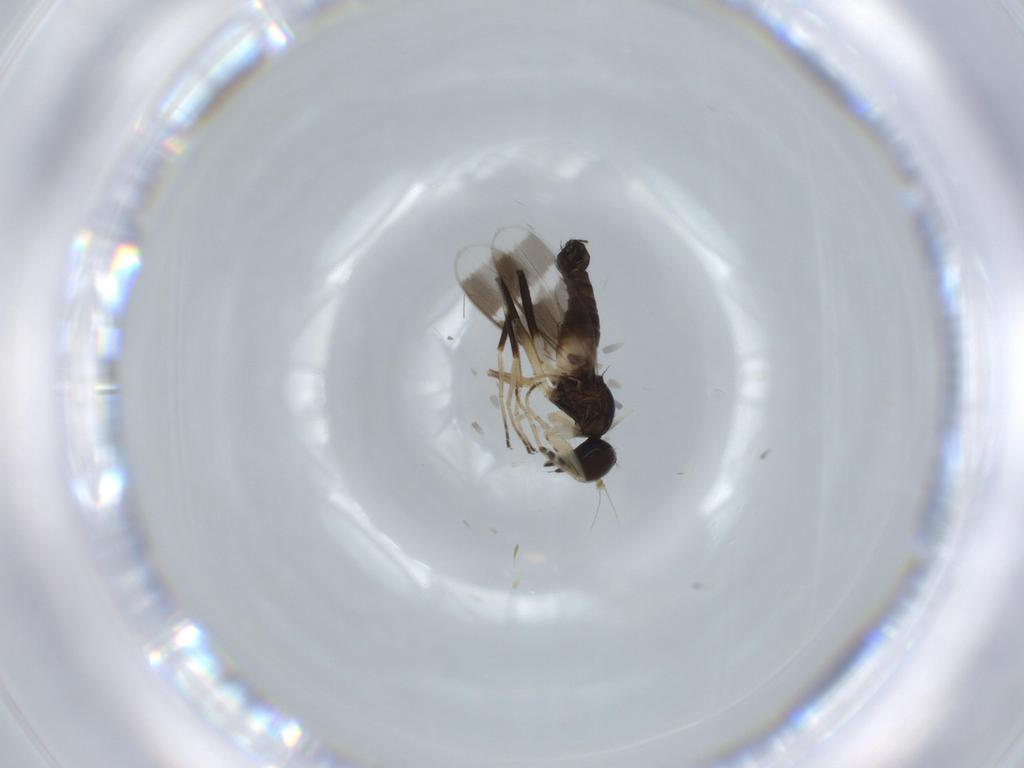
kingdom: Animalia
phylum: Arthropoda
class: Insecta
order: Diptera
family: Hybotidae
